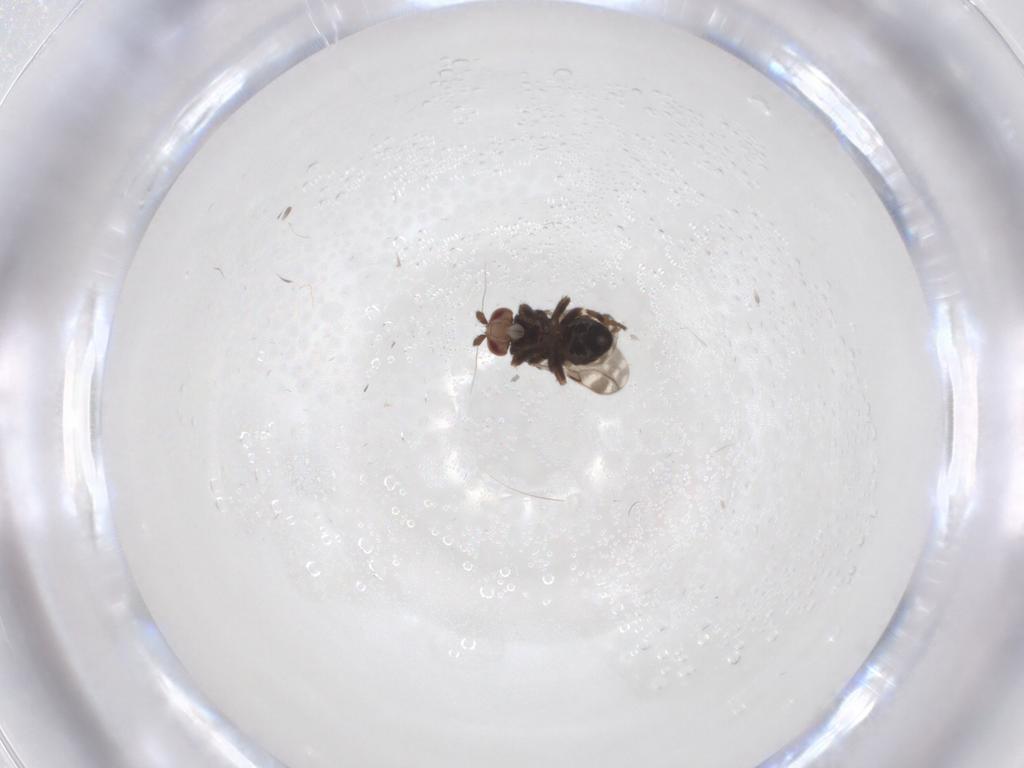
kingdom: Animalia
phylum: Arthropoda
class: Insecta
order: Diptera
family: Sphaeroceridae
